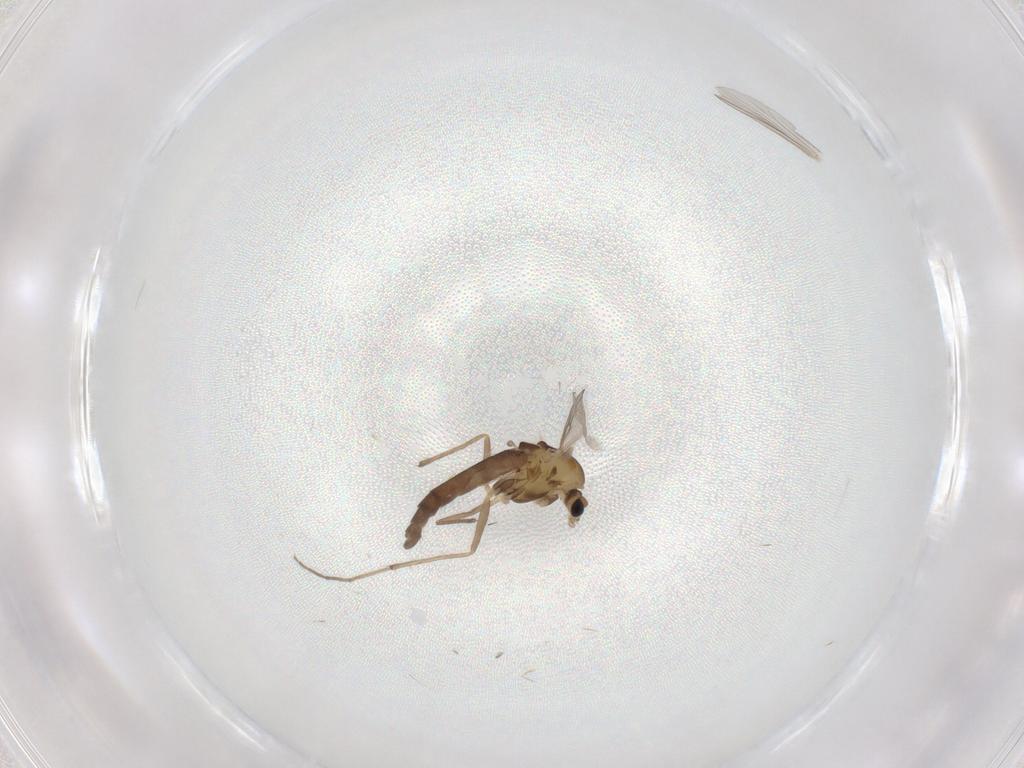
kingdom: Animalia
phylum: Arthropoda
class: Insecta
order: Diptera
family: Chironomidae
